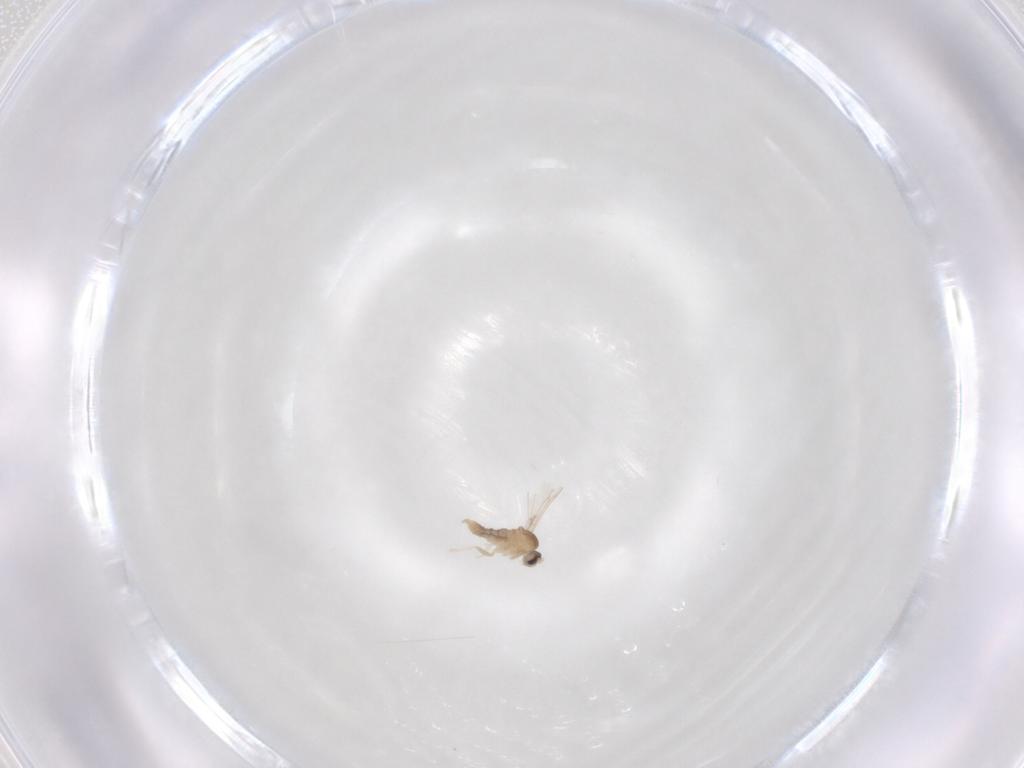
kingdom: Animalia
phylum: Arthropoda
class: Insecta
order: Diptera
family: Cecidomyiidae
